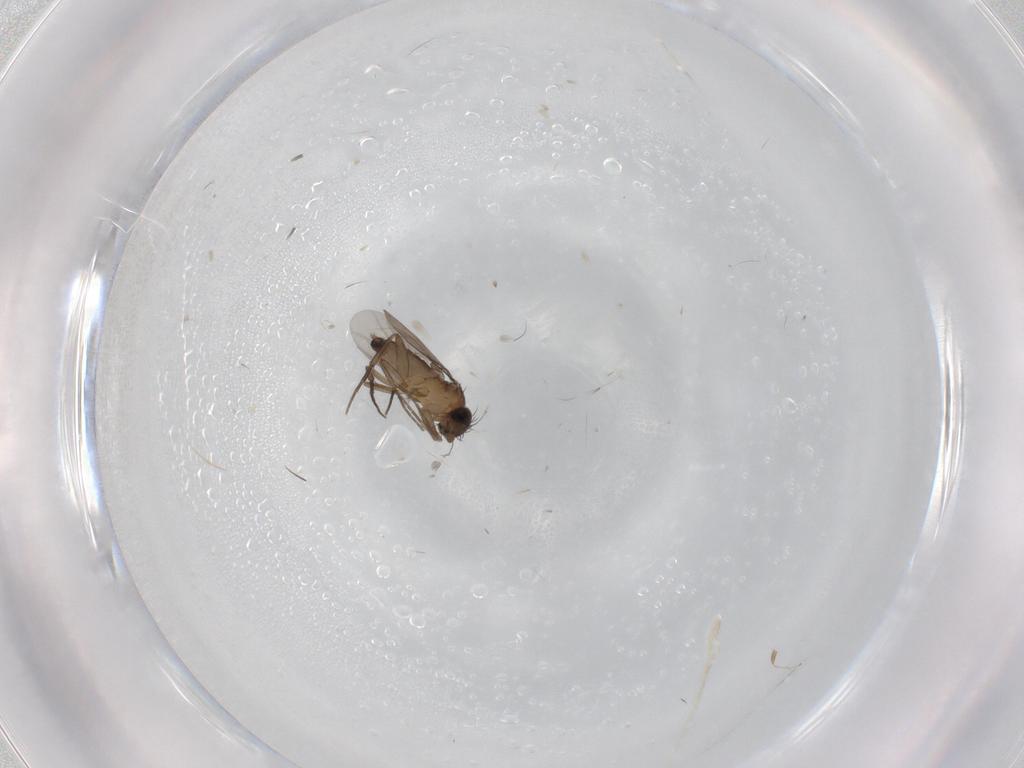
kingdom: Animalia
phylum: Arthropoda
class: Insecta
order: Diptera
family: Phoridae
